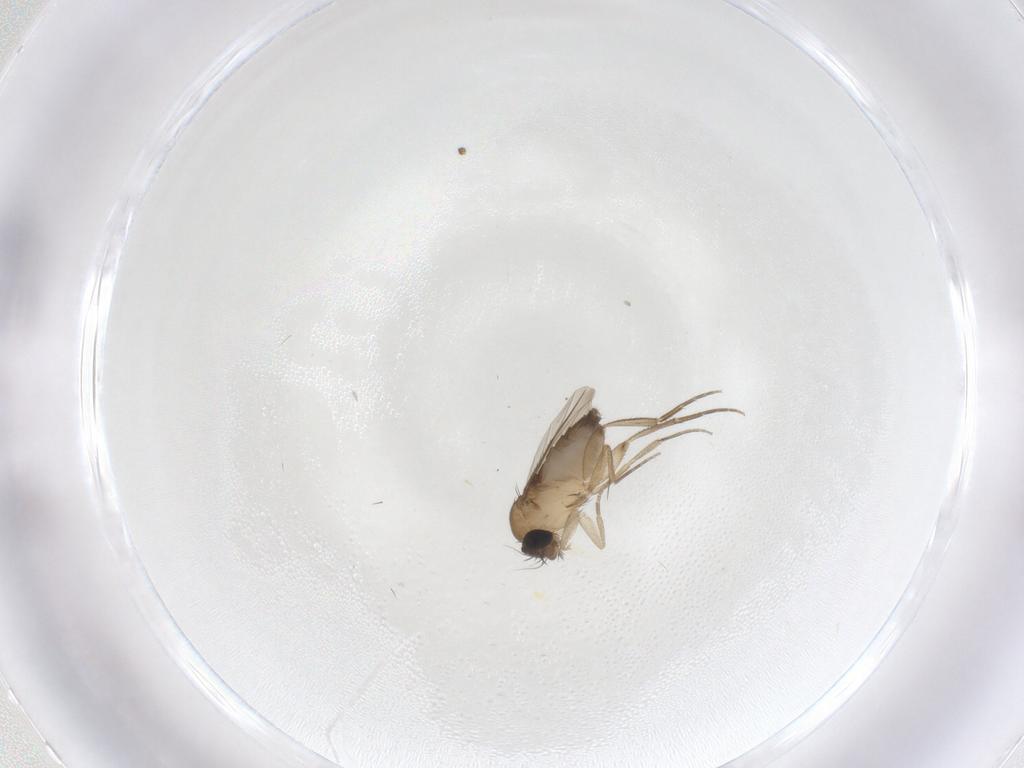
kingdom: Animalia
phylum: Arthropoda
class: Insecta
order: Diptera
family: Phoridae
